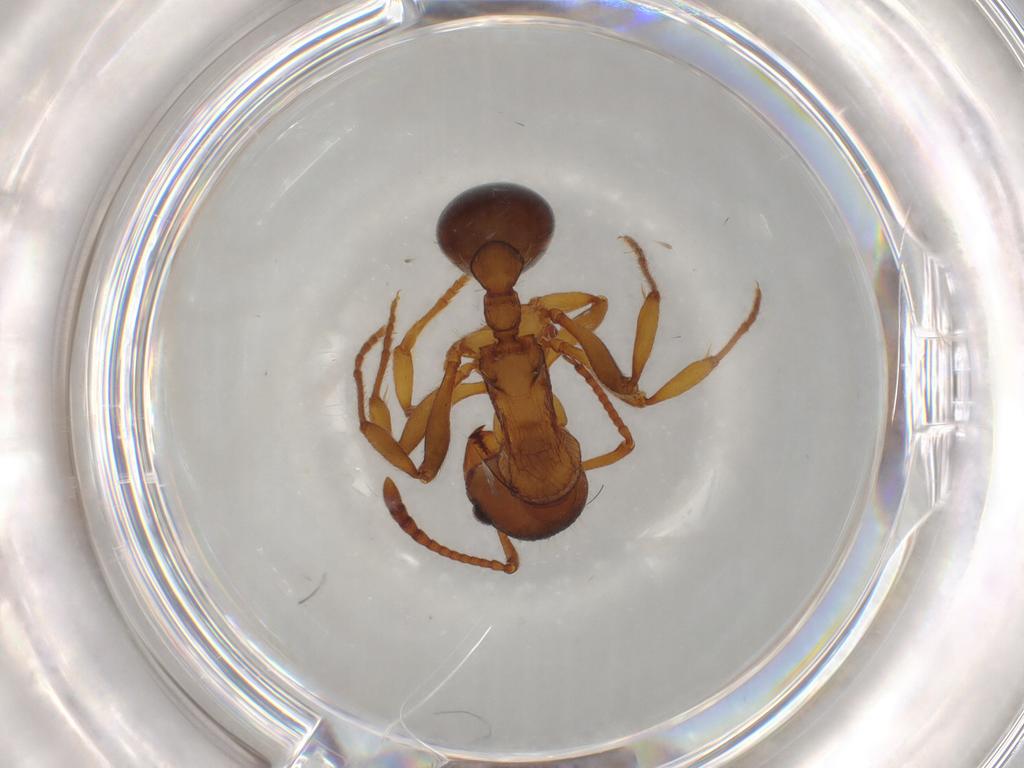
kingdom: Animalia
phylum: Arthropoda
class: Insecta
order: Hymenoptera
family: Formicidae
